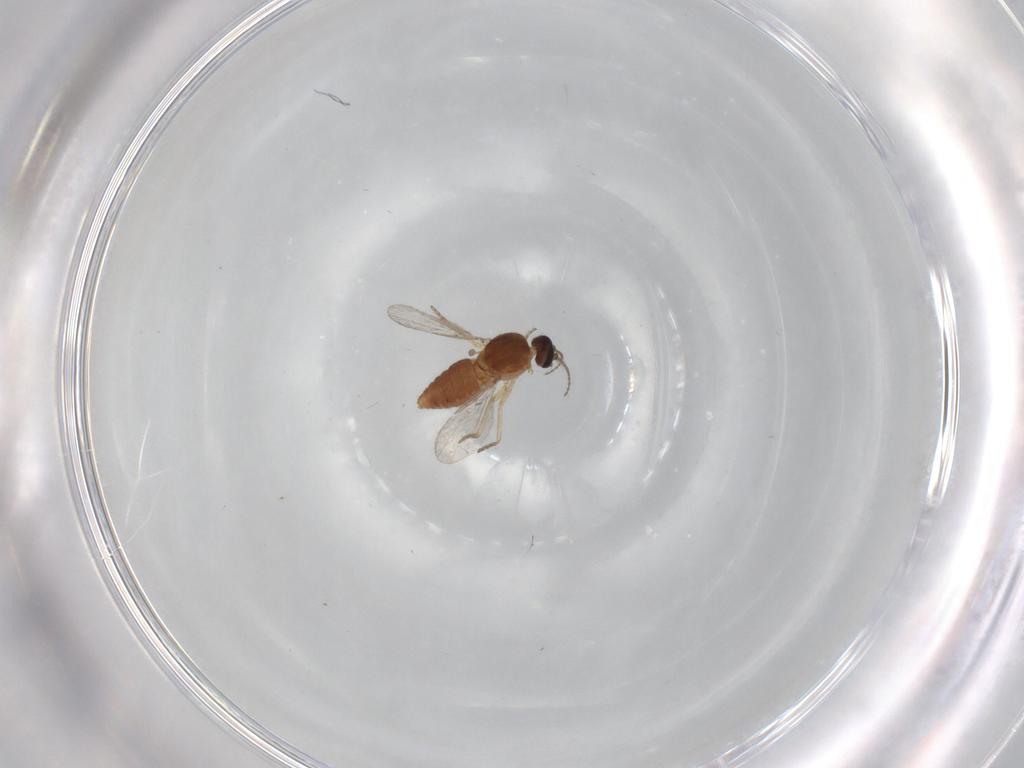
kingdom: Animalia
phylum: Arthropoda
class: Insecta
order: Diptera
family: Ceratopogonidae
